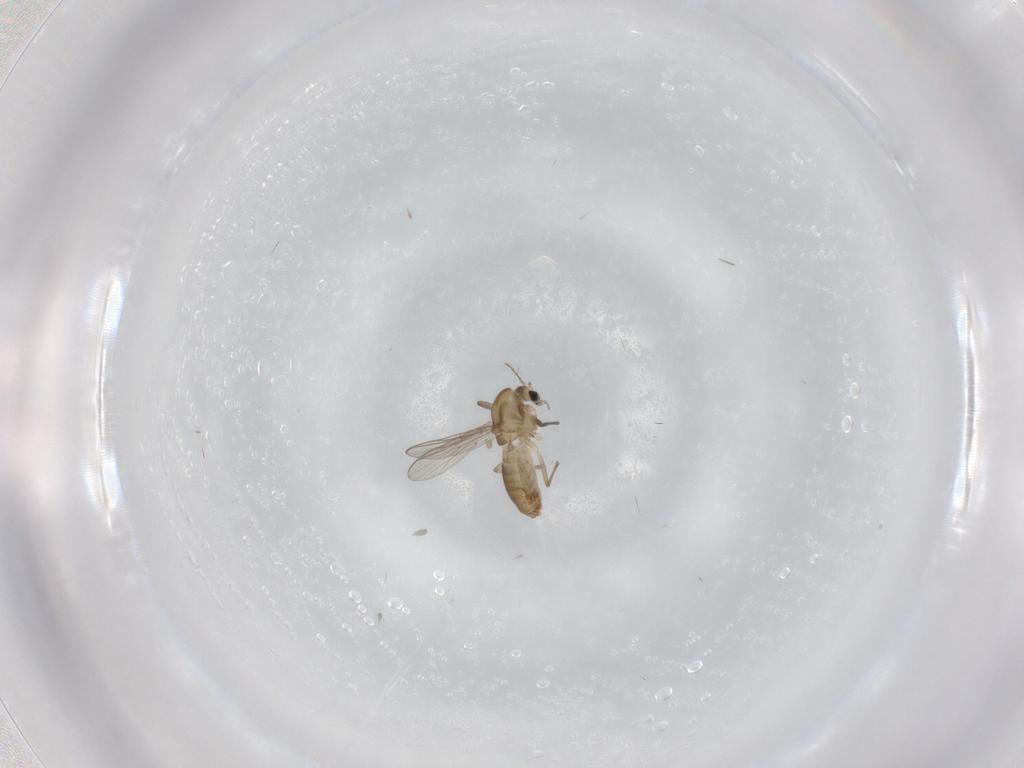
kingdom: Animalia
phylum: Arthropoda
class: Insecta
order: Diptera
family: Chironomidae
